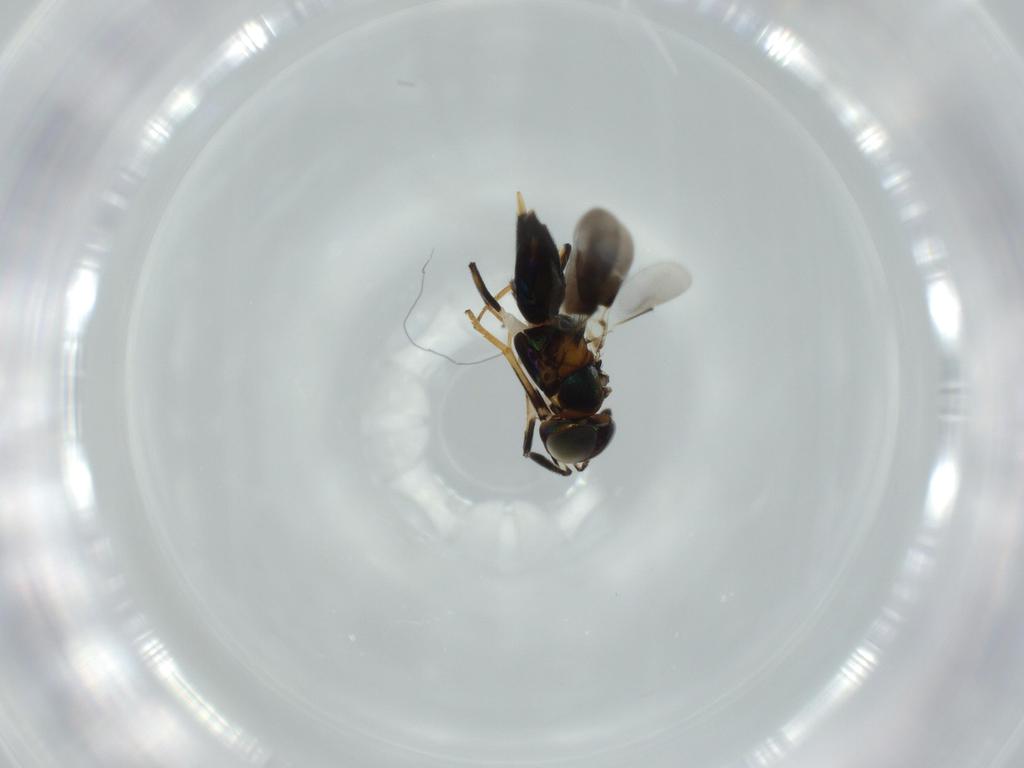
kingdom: Animalia
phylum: Arthropoda
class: Insecta
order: Hymenoptera
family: Encyrtidae
